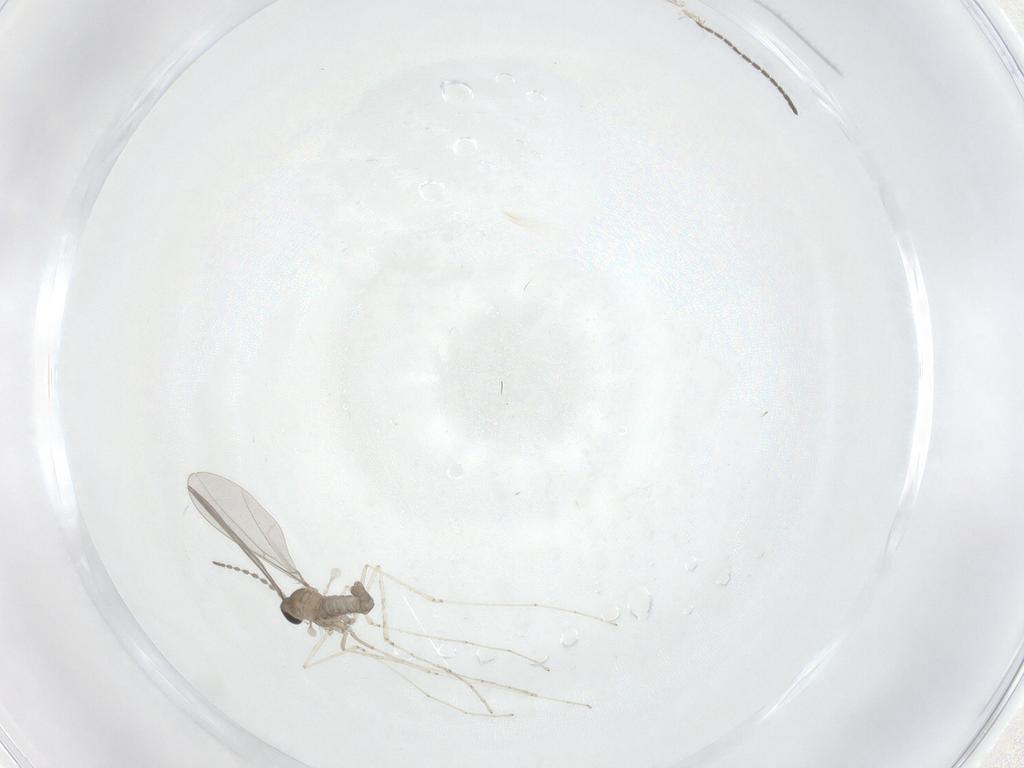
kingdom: Animalia
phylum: Arthropoda
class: Insecta
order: Diptera
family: Sciaridae
